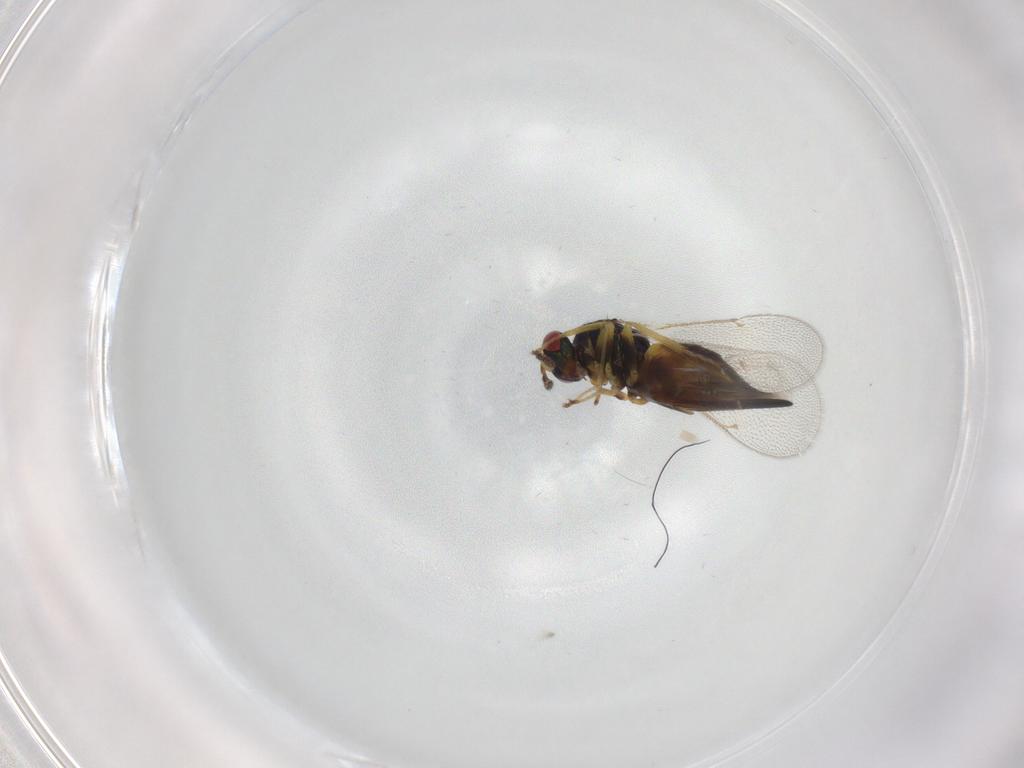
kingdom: Animalia
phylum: Arthropoda
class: Insecta
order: Hymenoptera
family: Eulophidae
